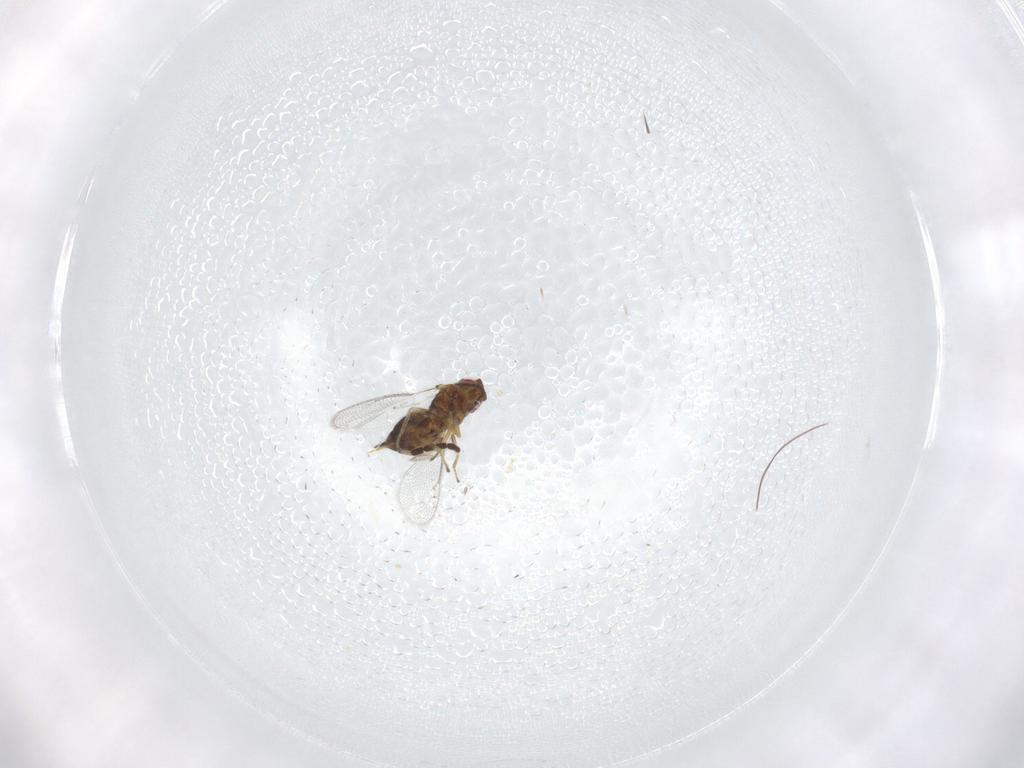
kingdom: Animalia
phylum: Arthropoda
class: Insecta
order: Hymenoptera
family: Eulophidae
